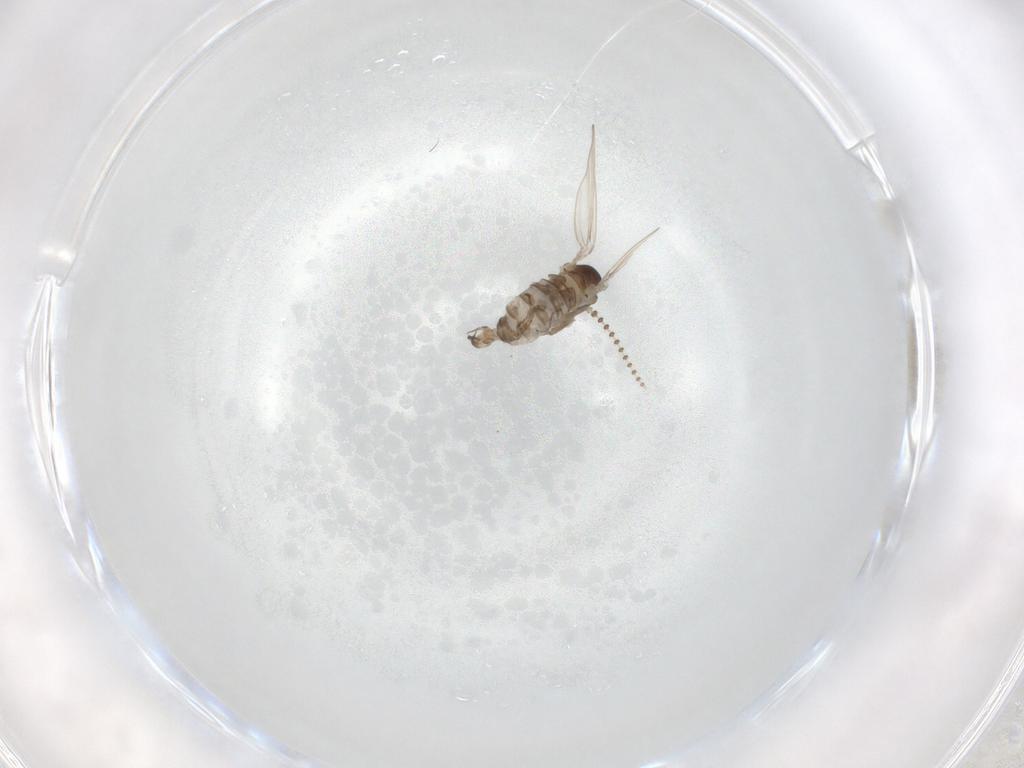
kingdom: Animalia
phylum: Arthropoda
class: Insecta
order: Diptera
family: Psychodidae
